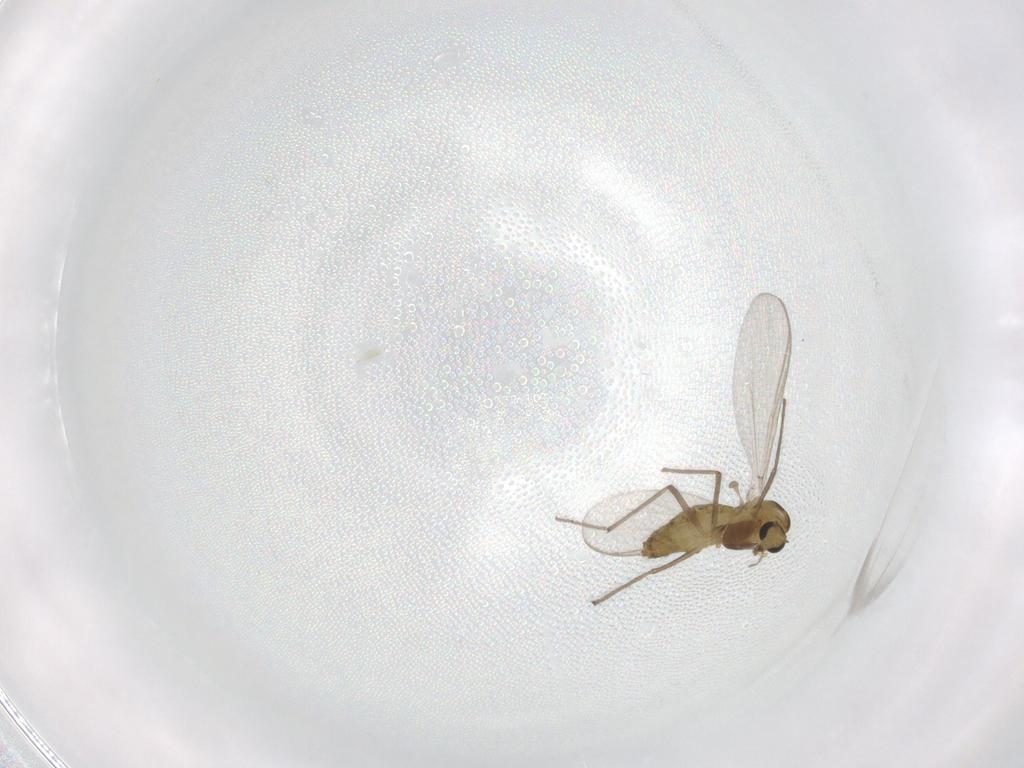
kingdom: Animalia
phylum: Arthropoda
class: Insecta
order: Diptera
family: Chironomidae
